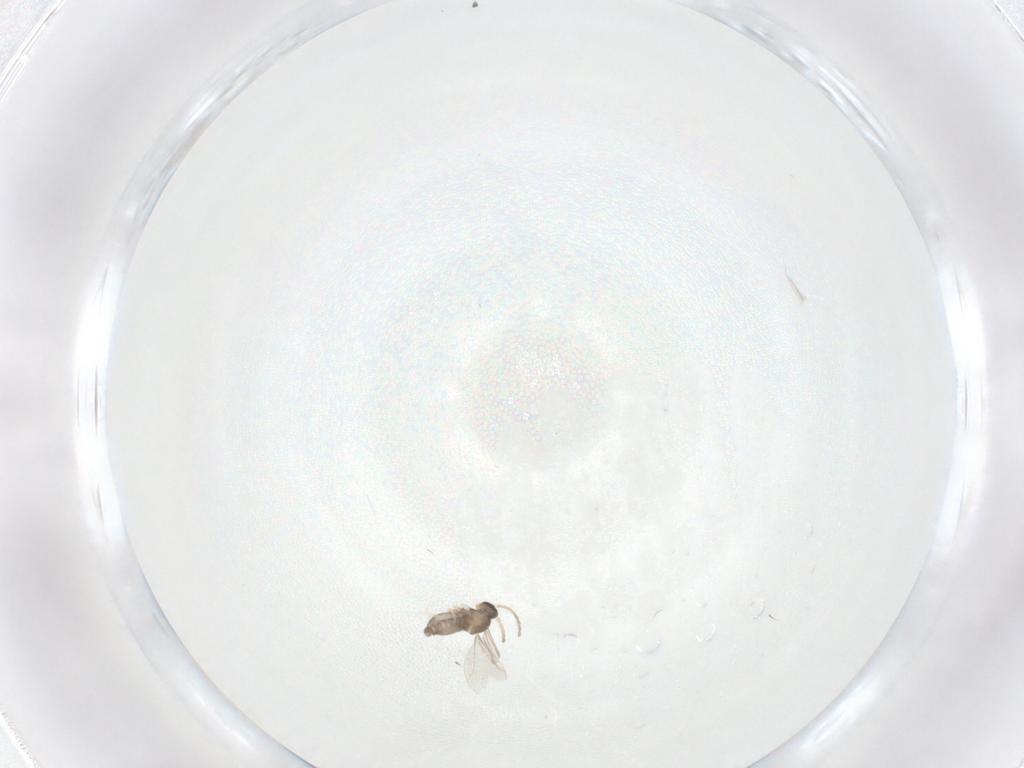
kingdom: Animalia
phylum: Arthropoda
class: Insecta
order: Diptera
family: Cecidomyiidae
